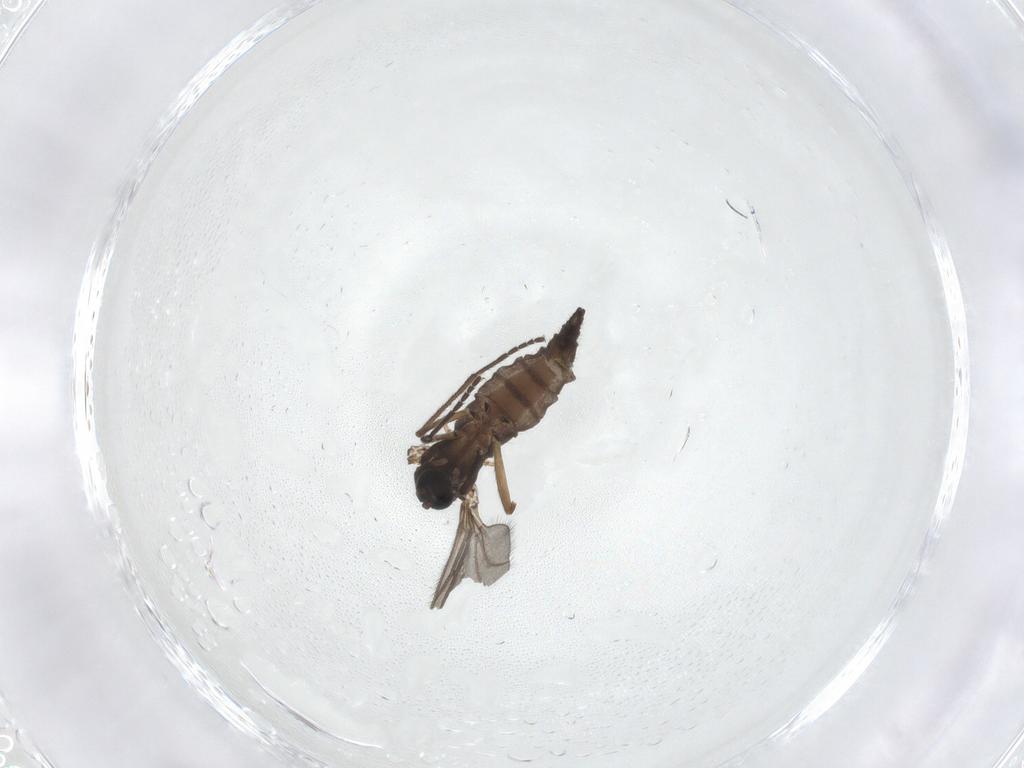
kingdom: Animalia
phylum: Arthropoda
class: Insecta
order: Diptera
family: Sciaridae
